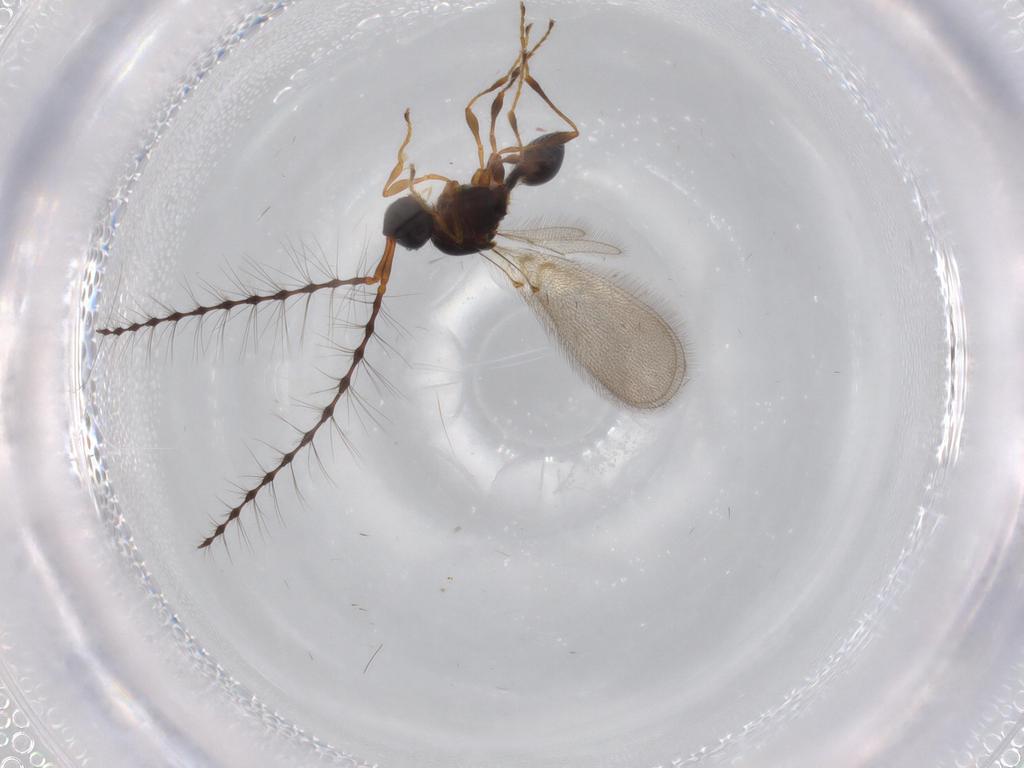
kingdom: Animalia
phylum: Arthropoda
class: Insecta
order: Hymenoptera
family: Diapriidae
